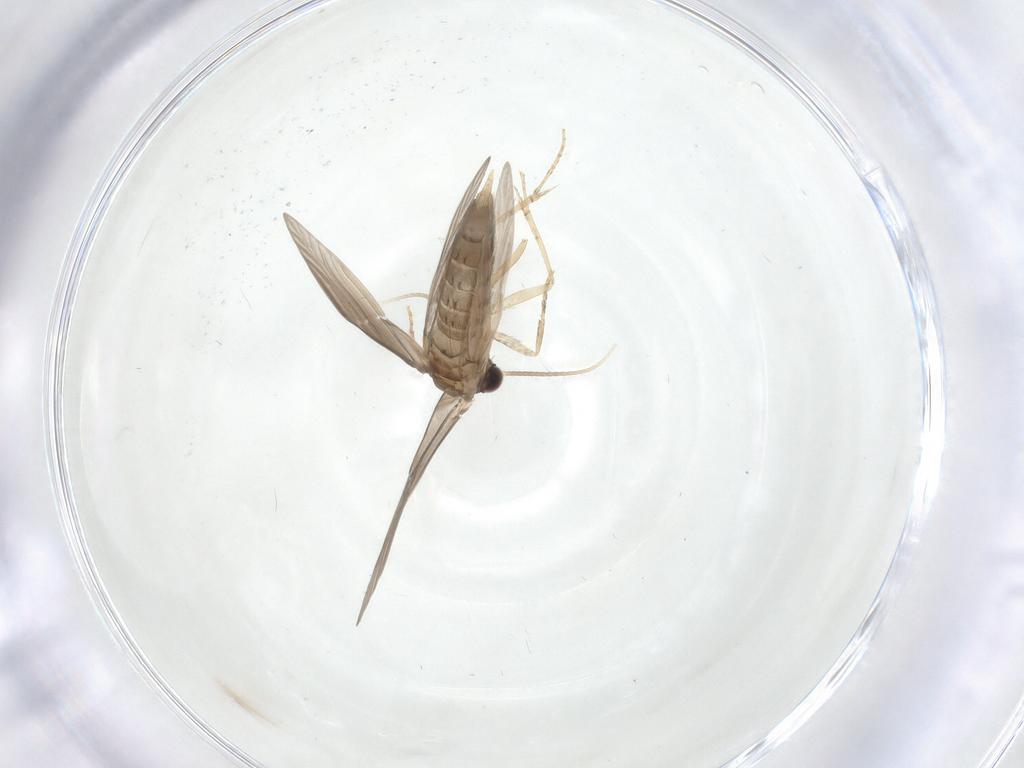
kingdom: Animalia
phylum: Arthropoda
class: Insecta
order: Trichoptera
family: Hydroptilidae
